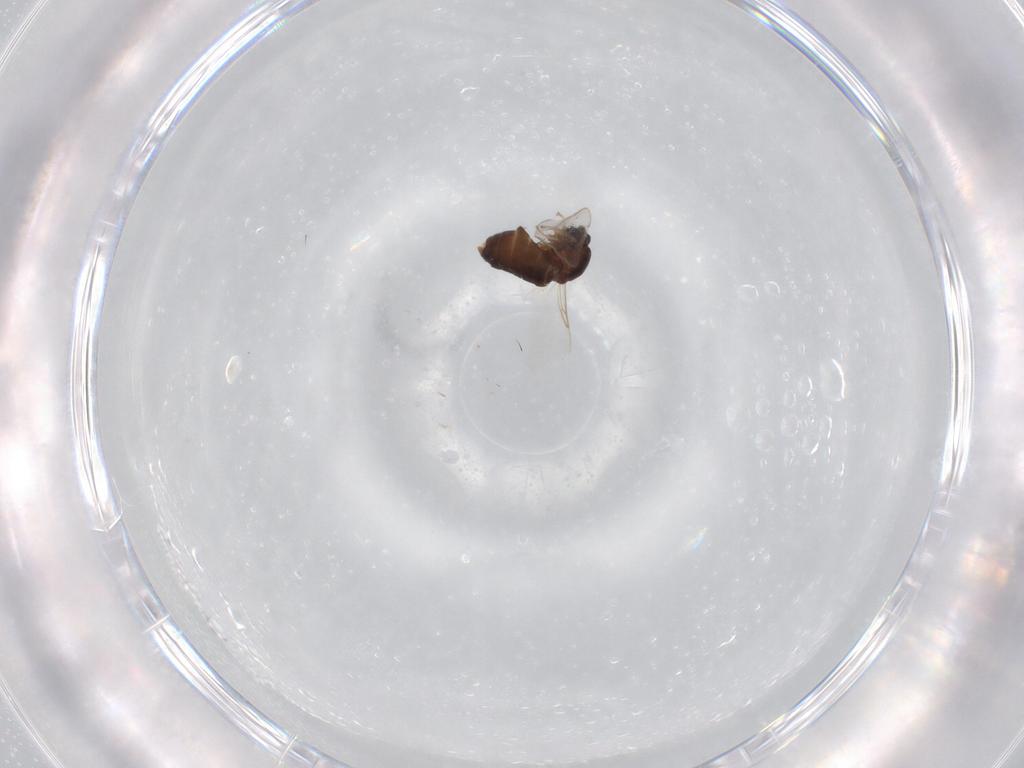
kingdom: Animalia
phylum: Arthropoda
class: Insecta
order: Diptera
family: Scatopsidae
